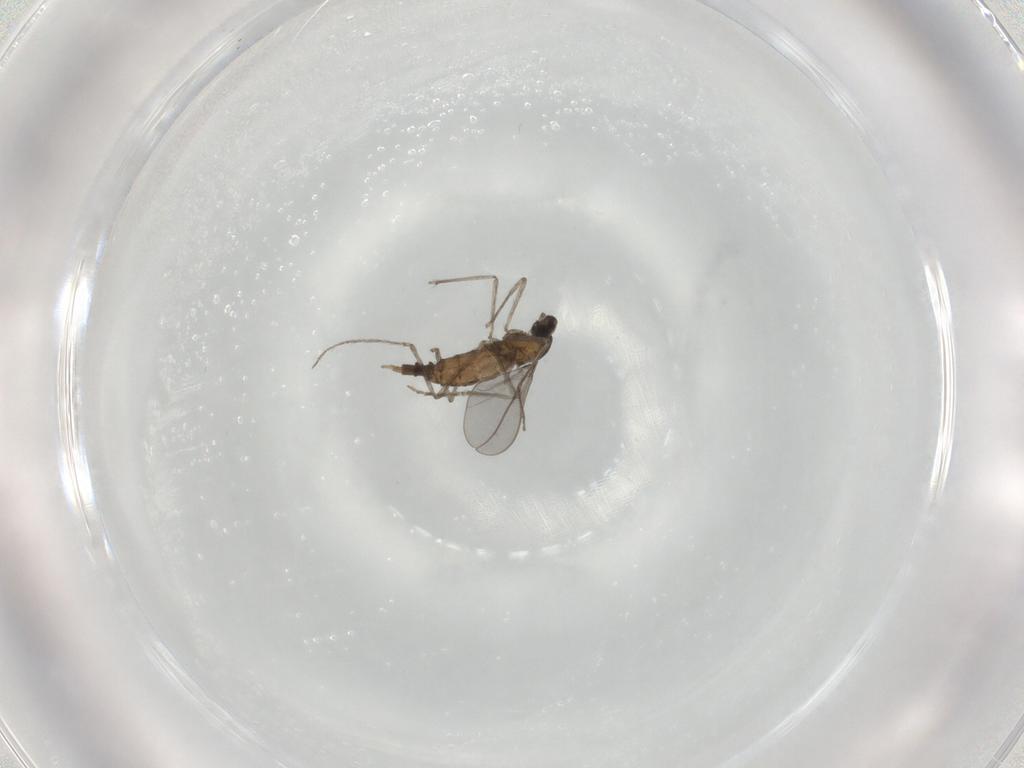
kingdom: Animalia
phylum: Arthropoda
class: Insecta
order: Diptera
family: Cecidomyiidae
